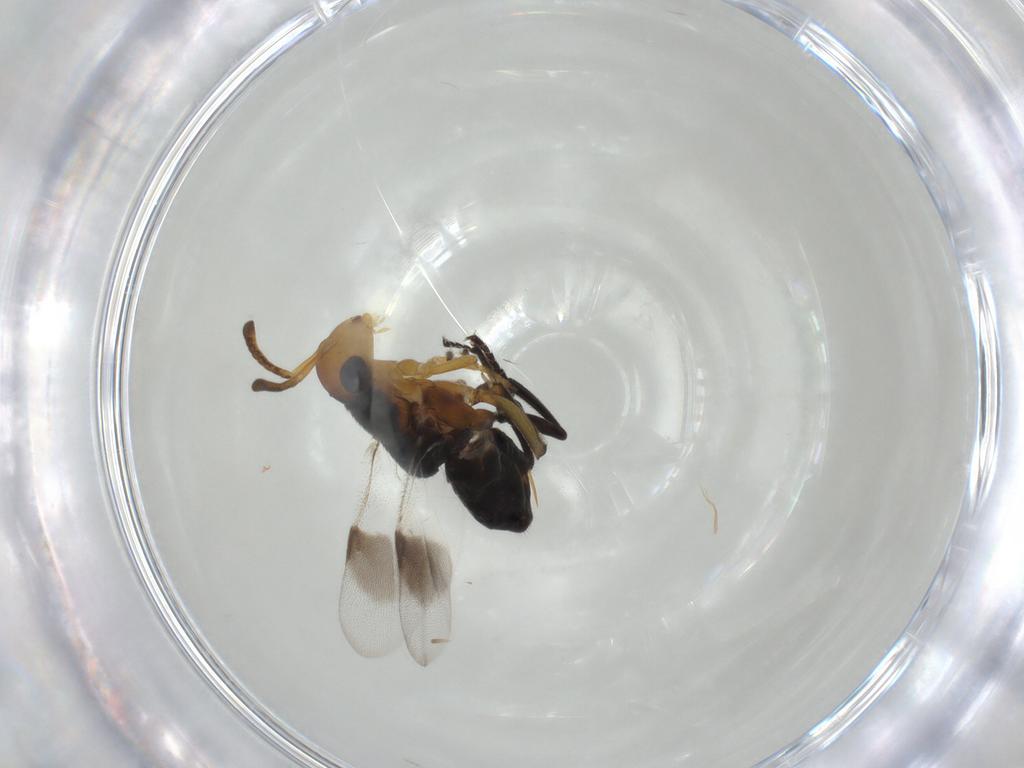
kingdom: Animalia
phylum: Arthropoda
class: Insecta
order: Hymenoptera
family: Encyrtidae
